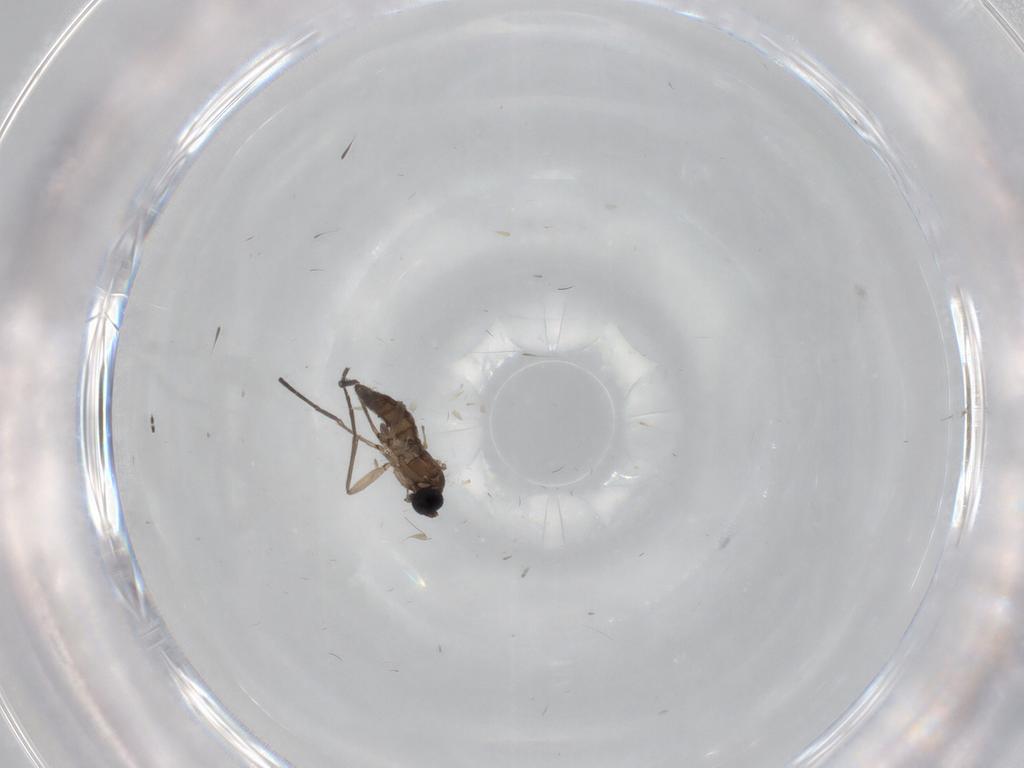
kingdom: Animalia
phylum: Arthropoda
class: Insecta
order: Diptera
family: Sciaridae
